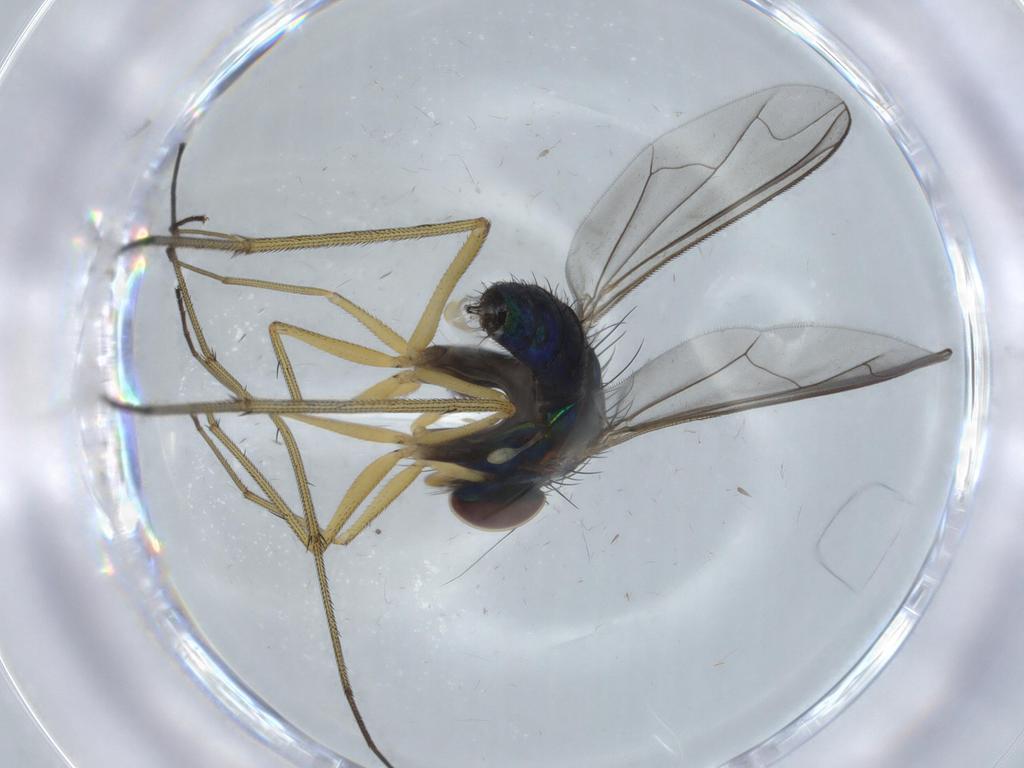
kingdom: Animalia
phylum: Arthropoda
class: Insecta
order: Diptera
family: Dolichopodidae
